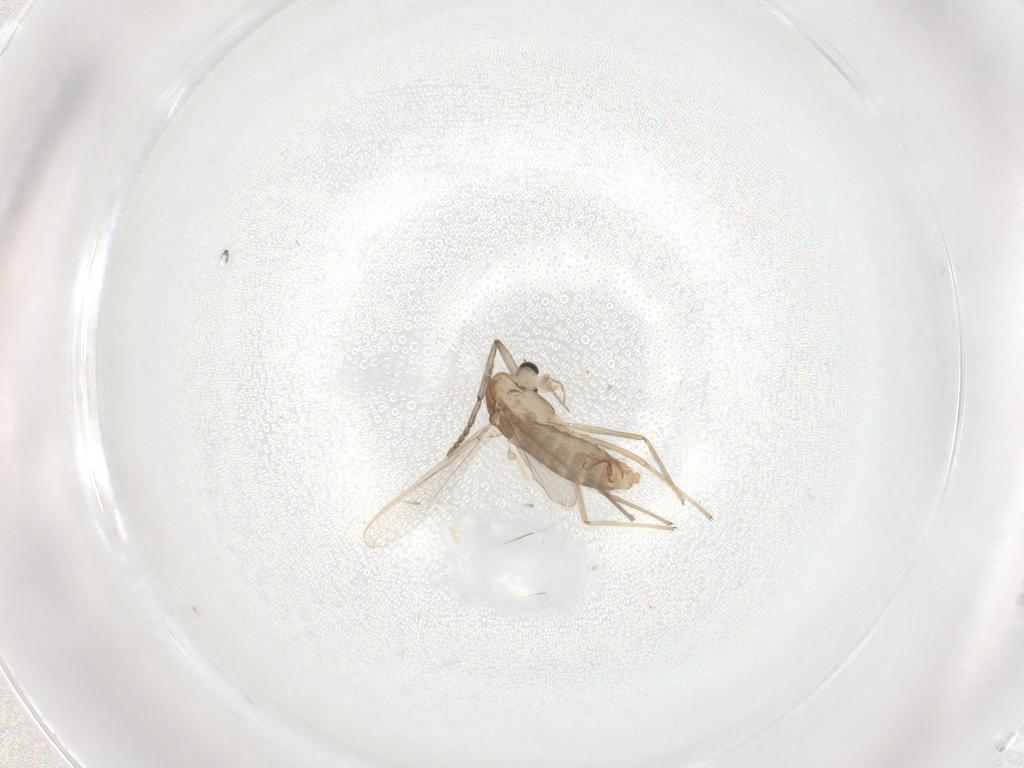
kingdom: Animalia
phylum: Arthropoda
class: Insecta
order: Diptera
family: Chironomidae
